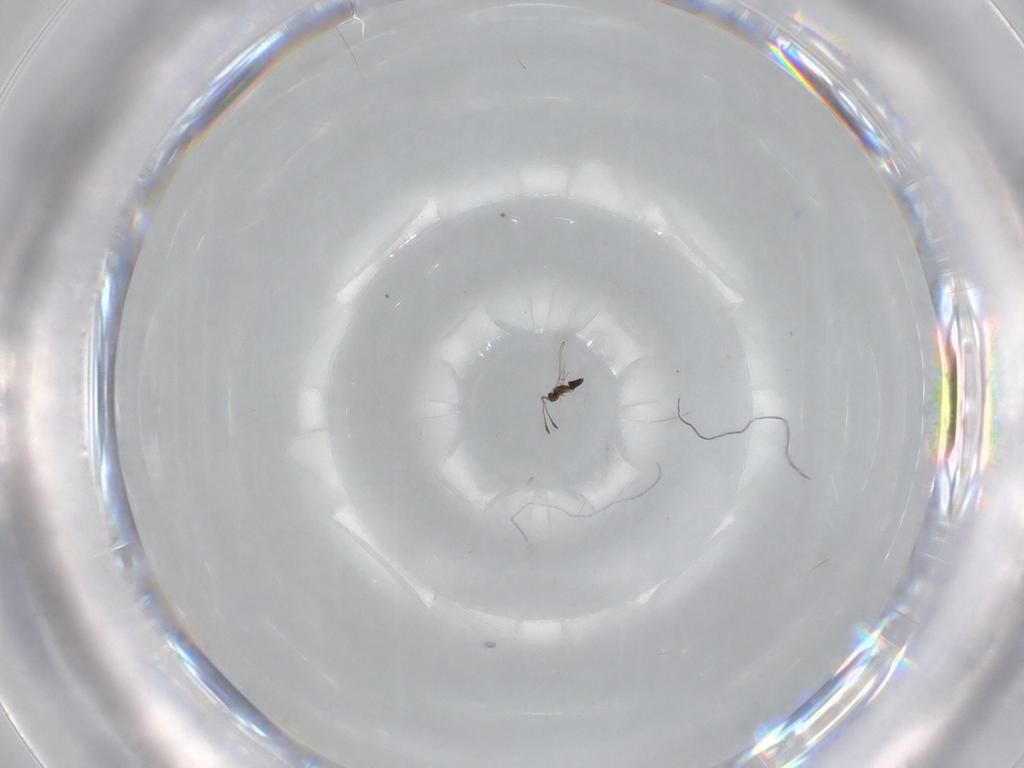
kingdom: Animalia
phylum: Arthropoda
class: Insecta
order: Hymenoptera
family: Mymaridae
